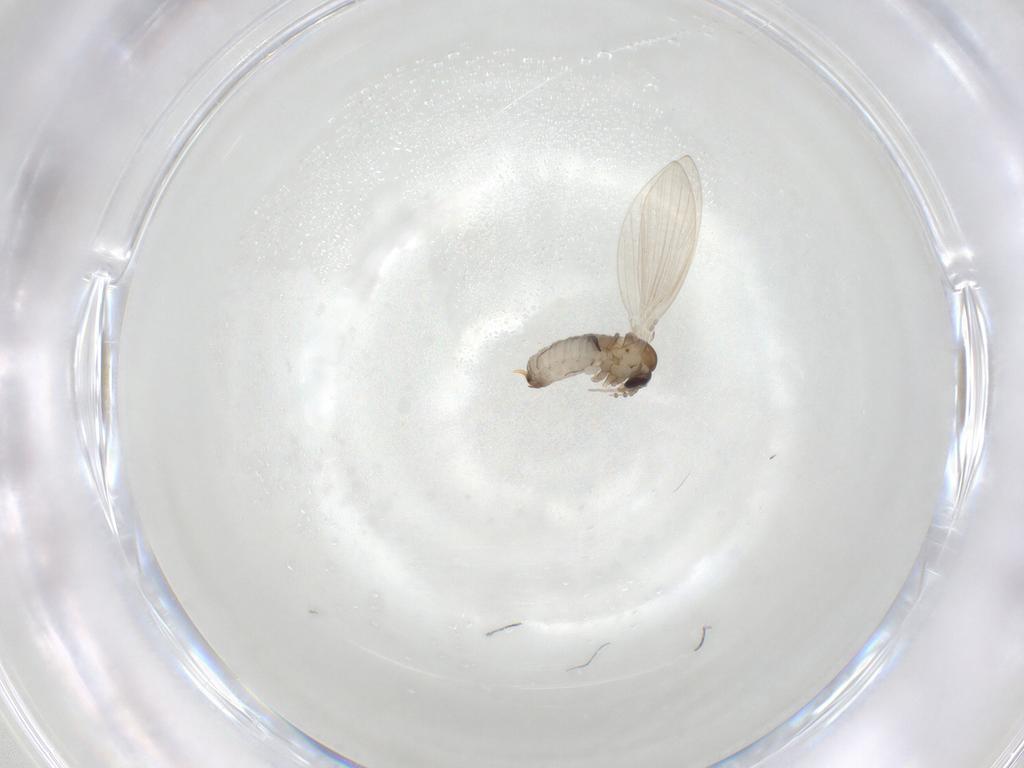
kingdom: Animalia
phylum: Arthropoda
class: Insecta
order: Diptera
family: Psychodidae
